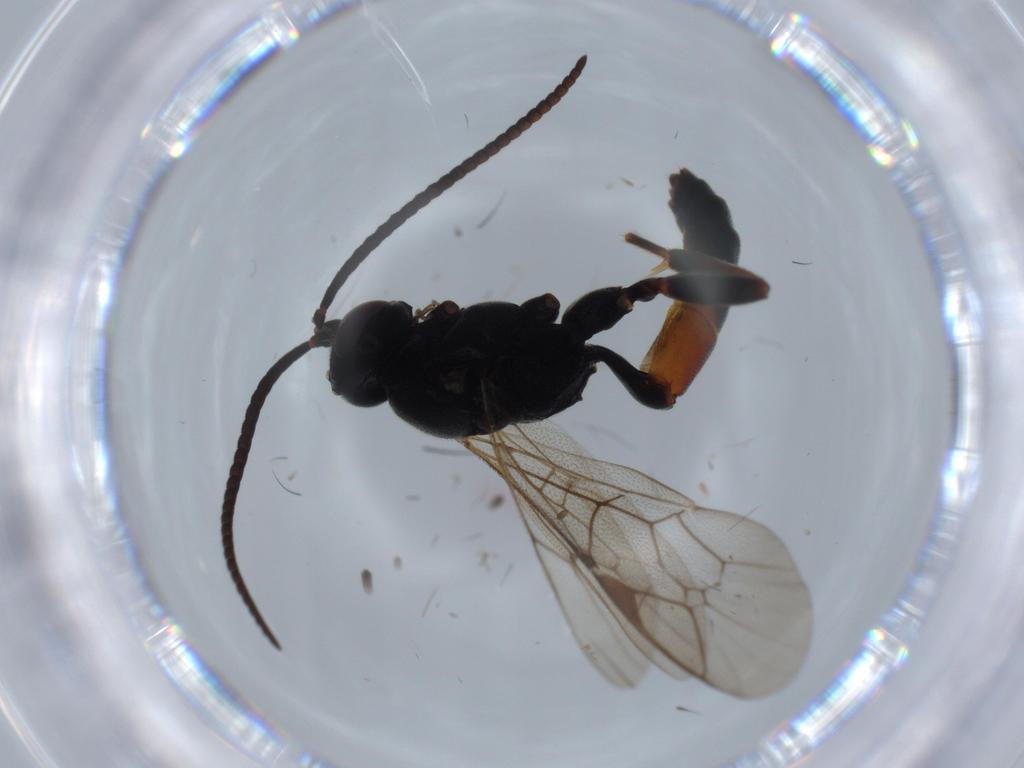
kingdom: Animalia
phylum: Arthropoda
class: Insecta
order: Hymenoptera
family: Ichneumonidae
